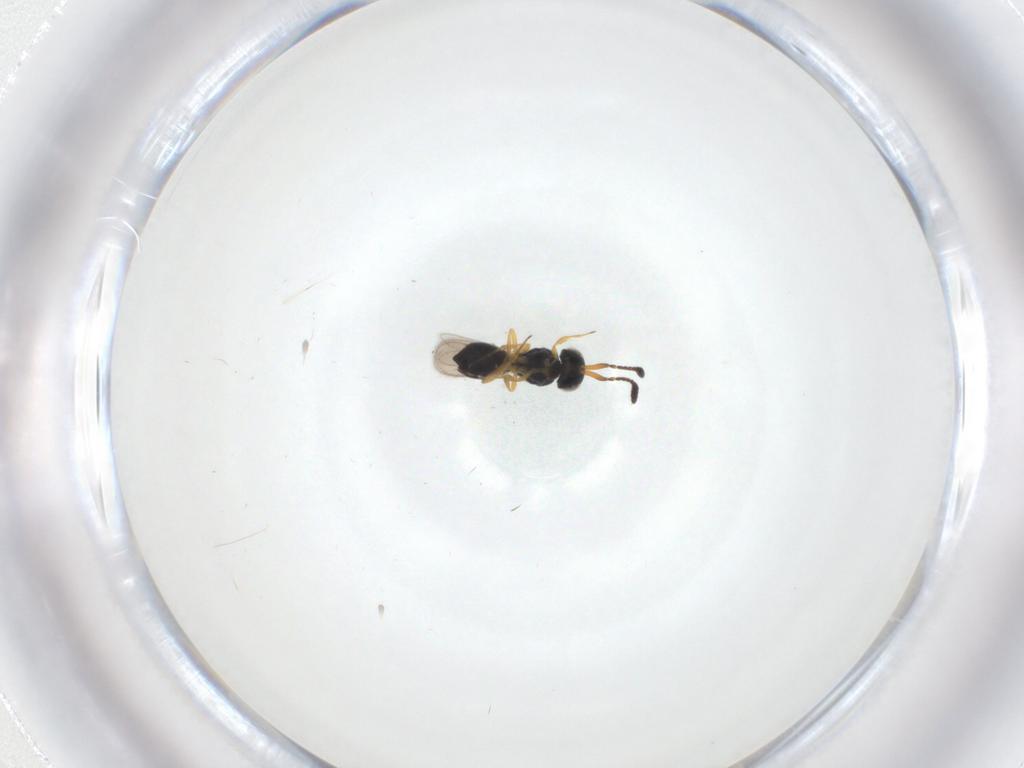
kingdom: Animalia
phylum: Arthropoda
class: Insecta
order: Hymenoptera
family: Scelionidae
